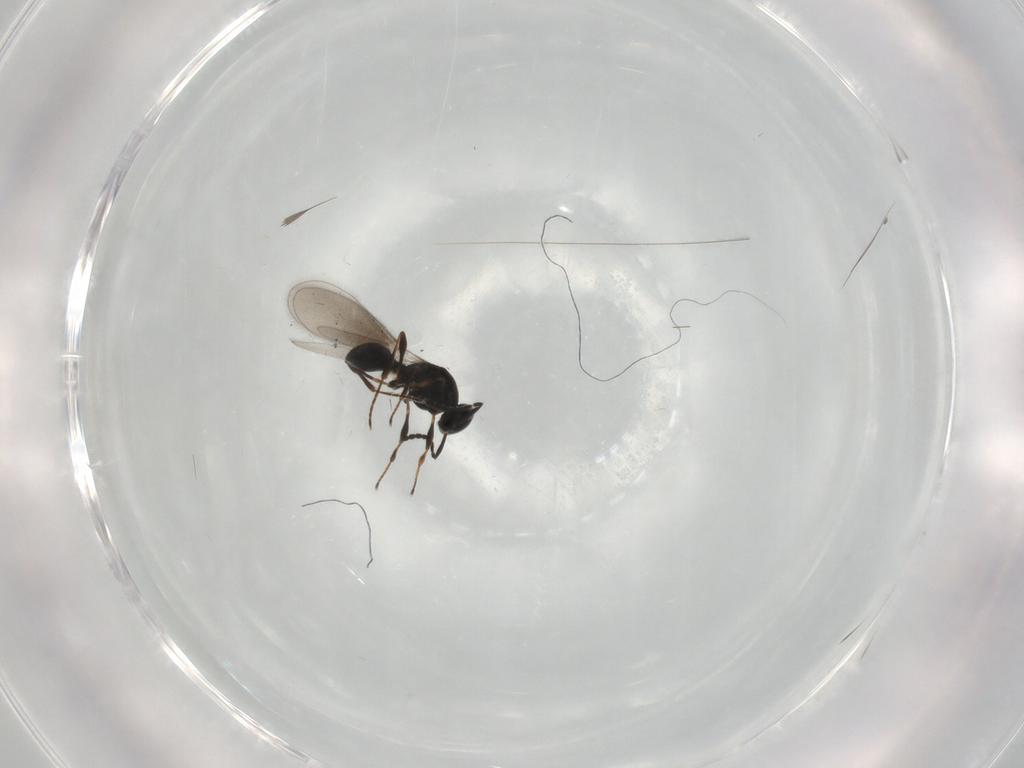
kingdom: Animalia
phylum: Arthropoda
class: Insecta
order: Hymenoptera
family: Platygastridae
